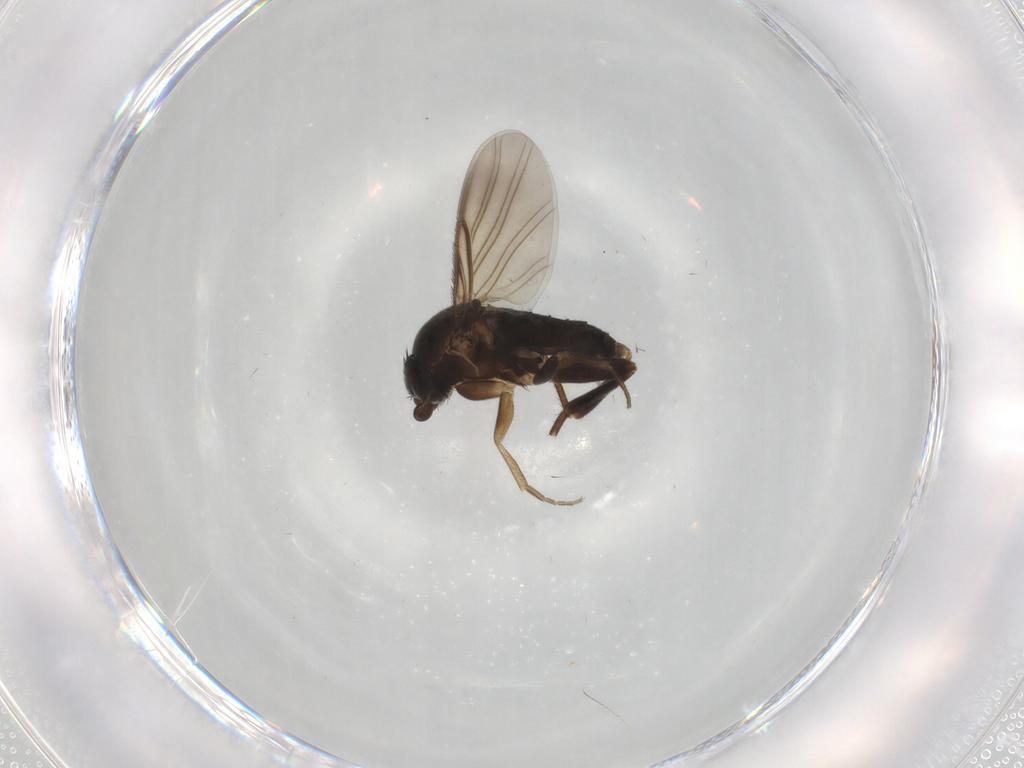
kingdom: Animalia
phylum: Arthropoda
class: Insecta
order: Diptera
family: Chironomidae
